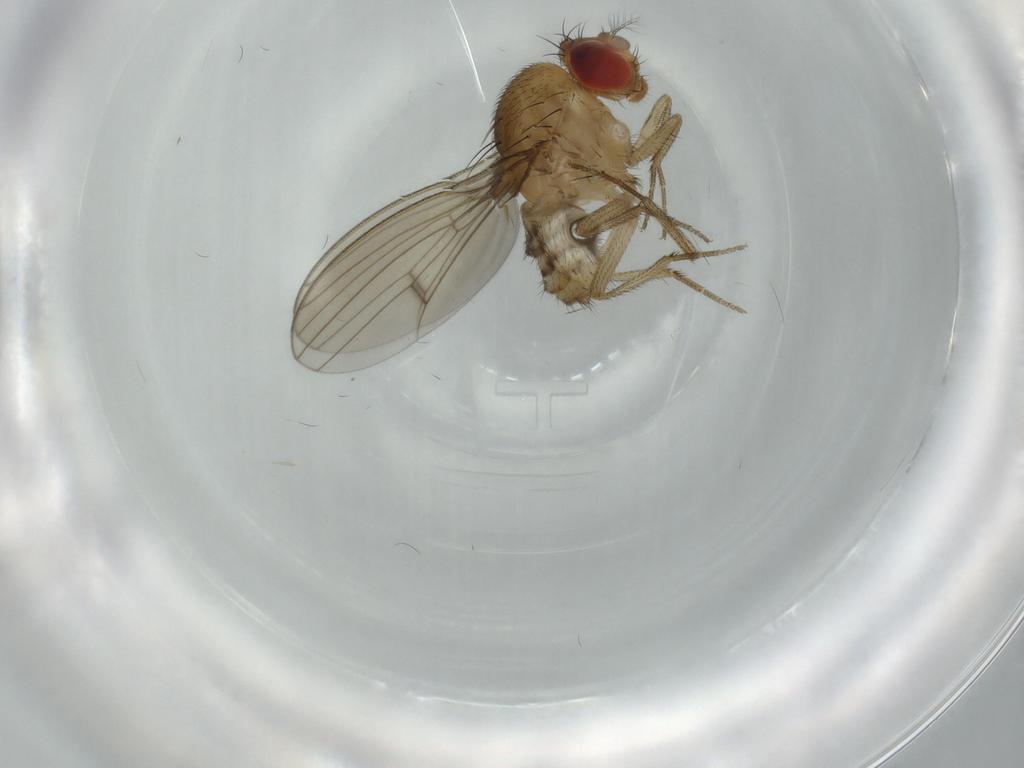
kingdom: Animalia
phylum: Arthropoda
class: Insecta
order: Diptera
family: Drosophilidae
